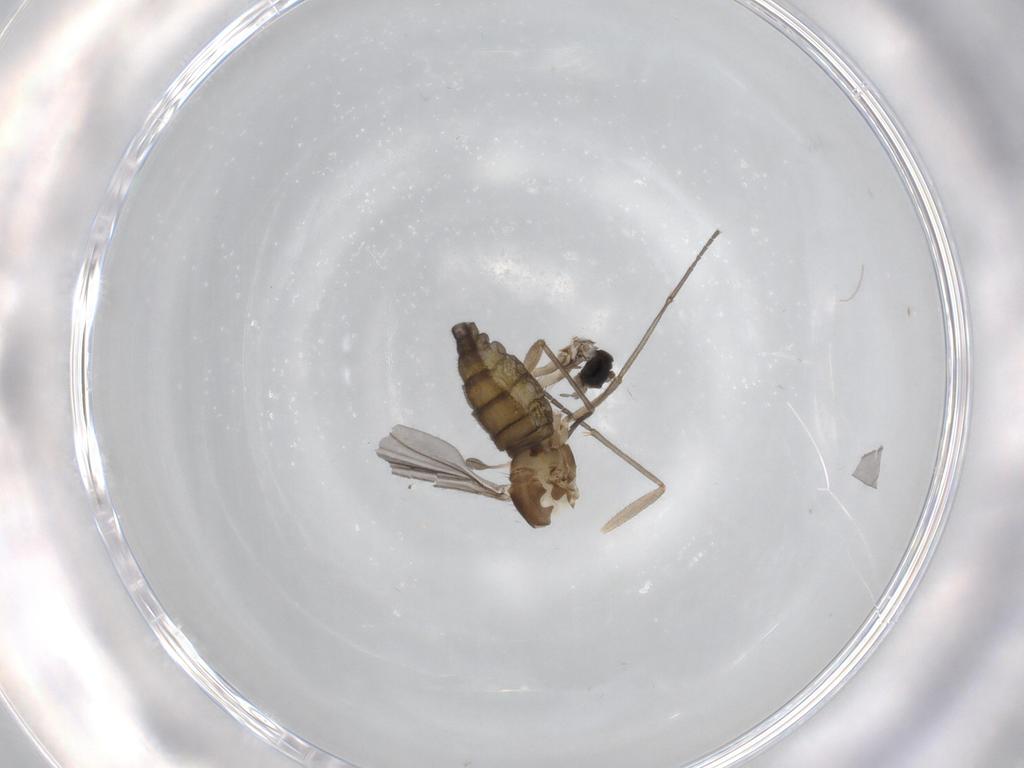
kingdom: Animalia
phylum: Arthropoda
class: Insecta
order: Diptera
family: Sciaridae
